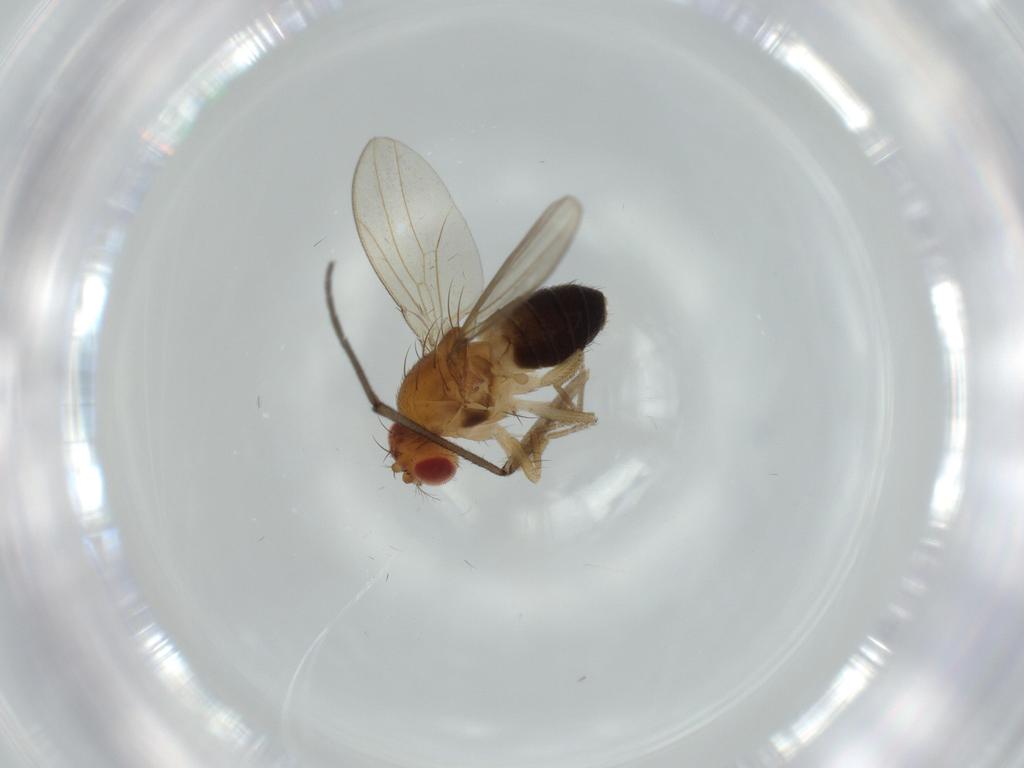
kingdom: Animalia
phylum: Arthropoda
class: Insecta
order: Diptera
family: Drosophilidae
